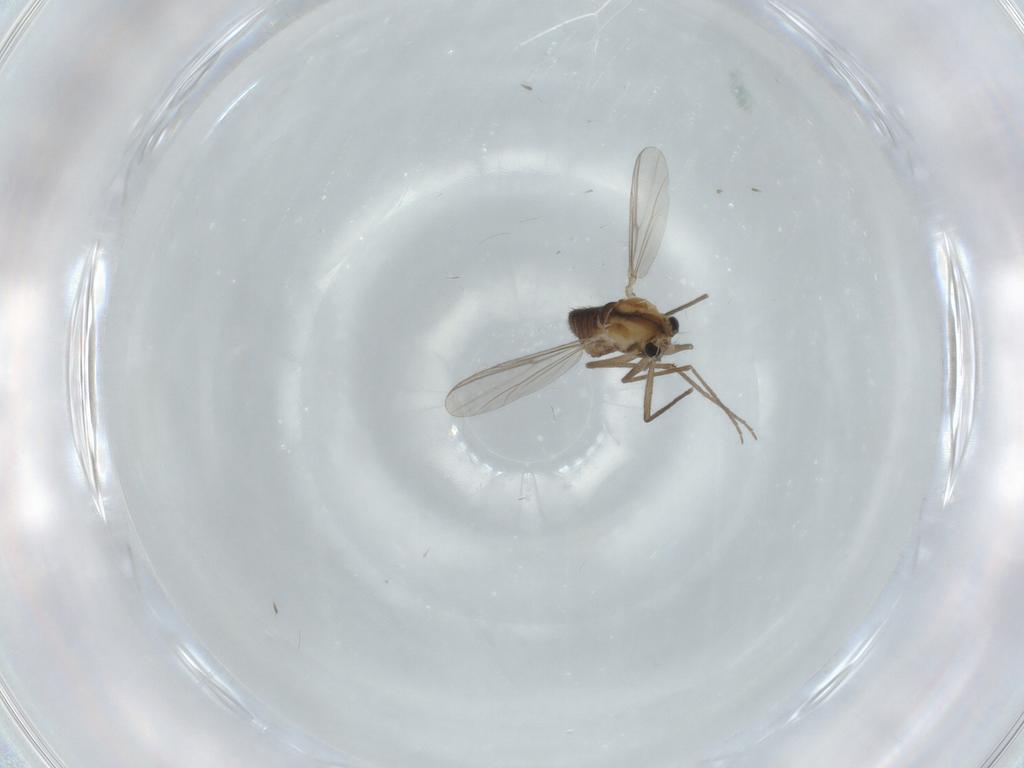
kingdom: Animalia
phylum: Arthropoda
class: Insecta
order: Diptera
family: Chironomidae
